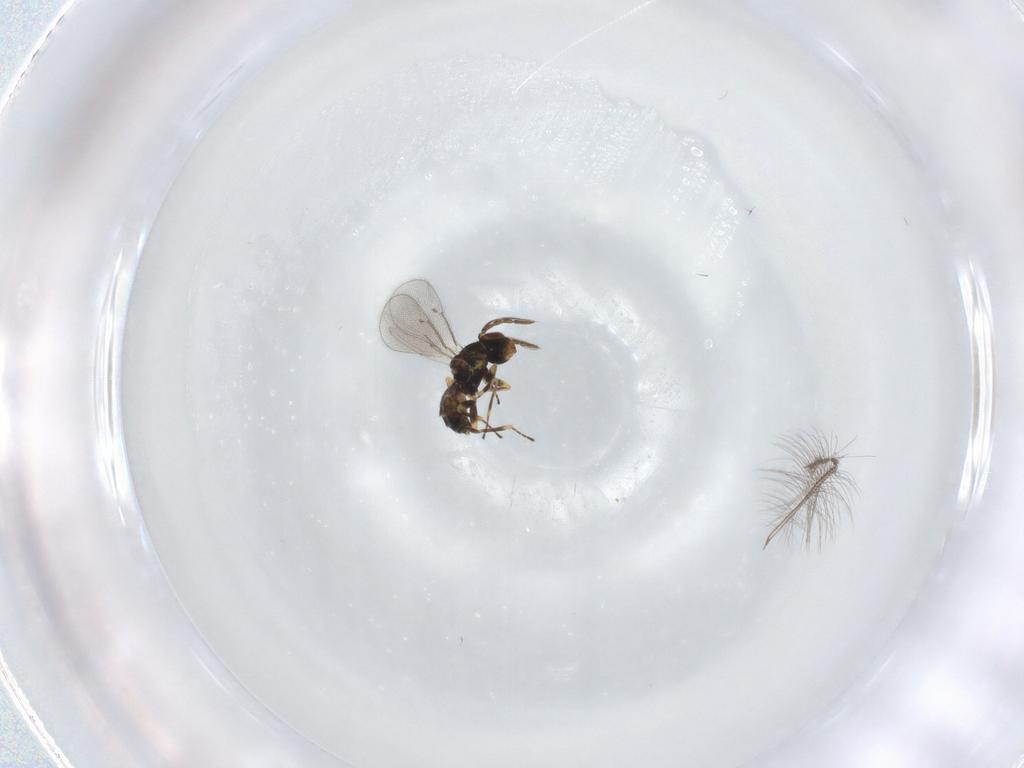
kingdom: Animalia
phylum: Arthropoda
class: Insecta
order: Hymenoptera
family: Eulophidae
